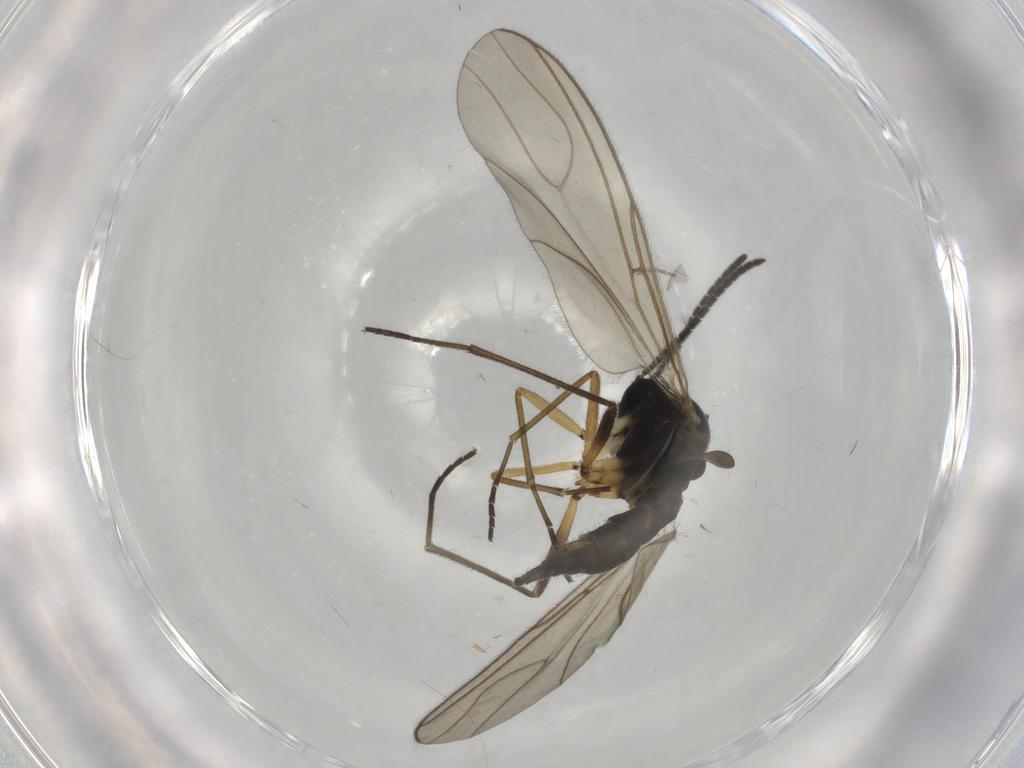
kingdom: Animalia
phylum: Arthropoda
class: Insecta
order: Diptera
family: Sciaridae
